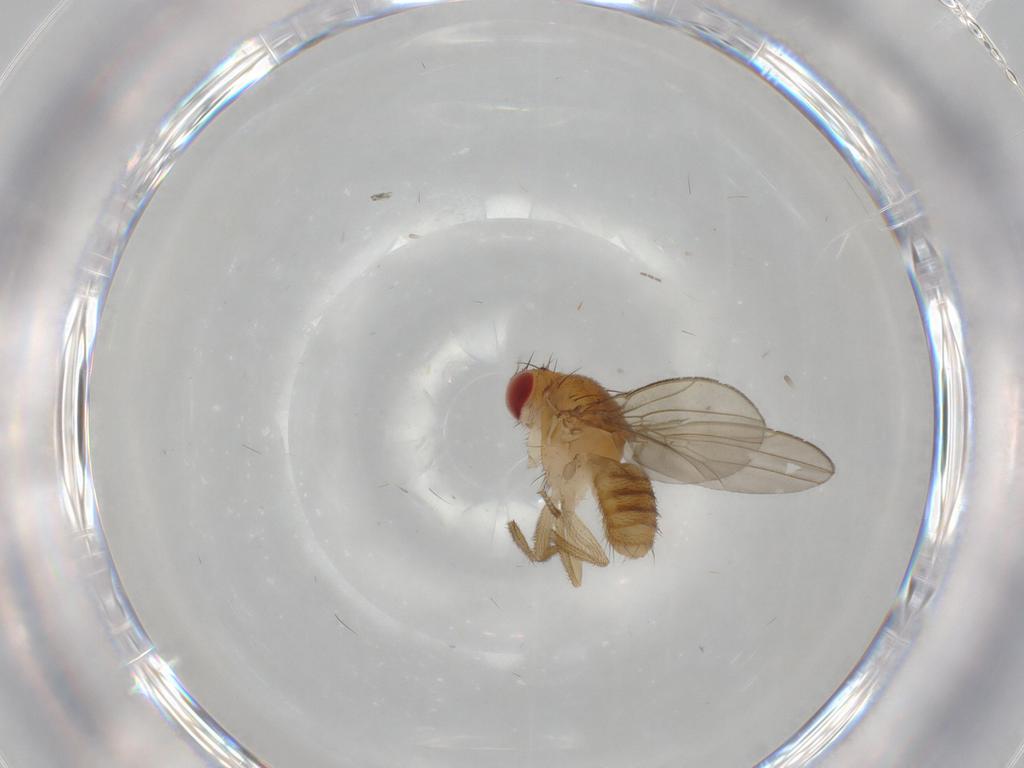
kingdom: Animalia
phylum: Arthropoda
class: Insecta
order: Diptera
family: Drosophilidae
